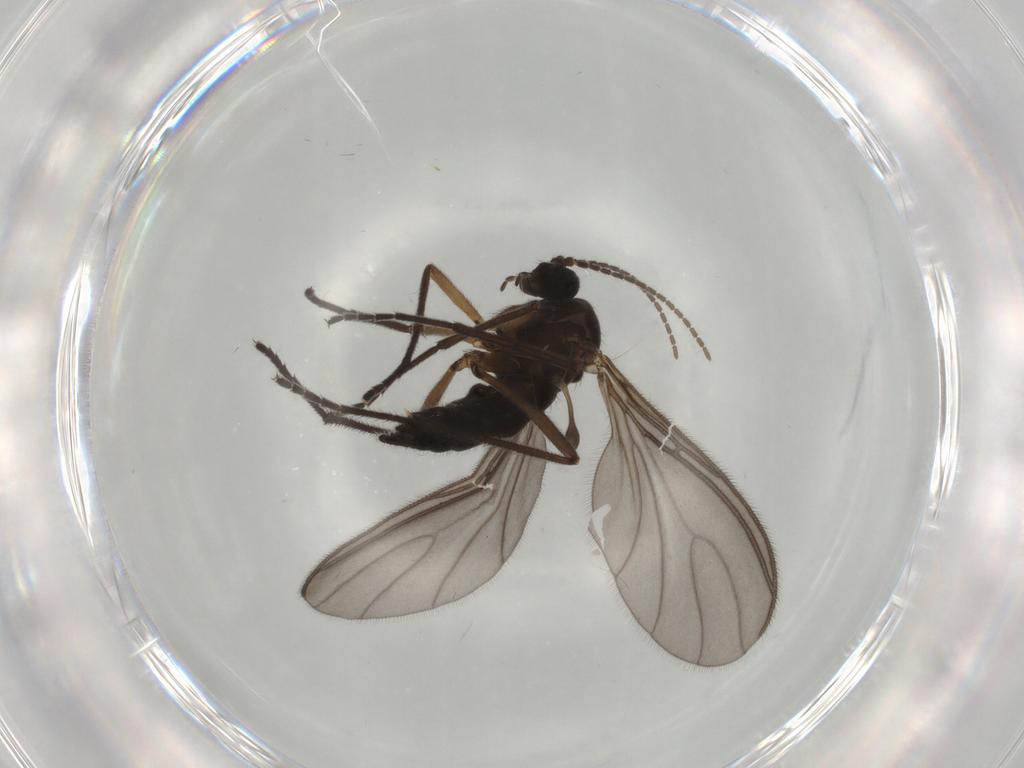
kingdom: Animalia
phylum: Arthropoda
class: Insecta
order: Diptera
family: Sciaridae
